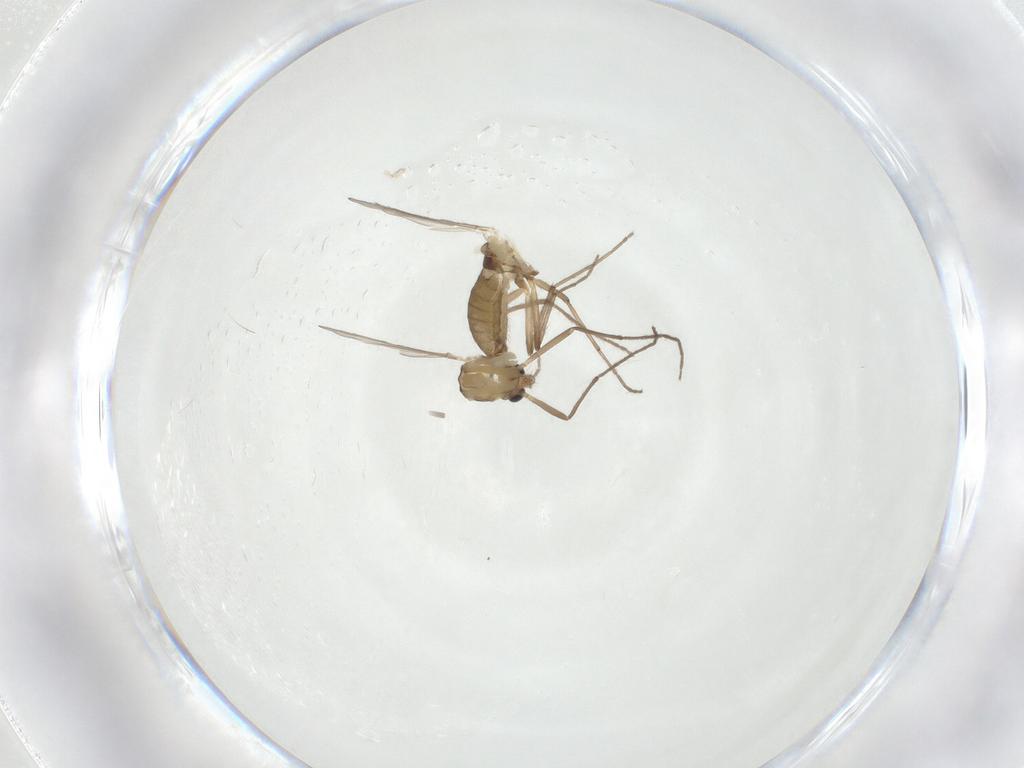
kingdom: Animalia
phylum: Arthropoda
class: Insecta
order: Diptera
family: Chironomidae
